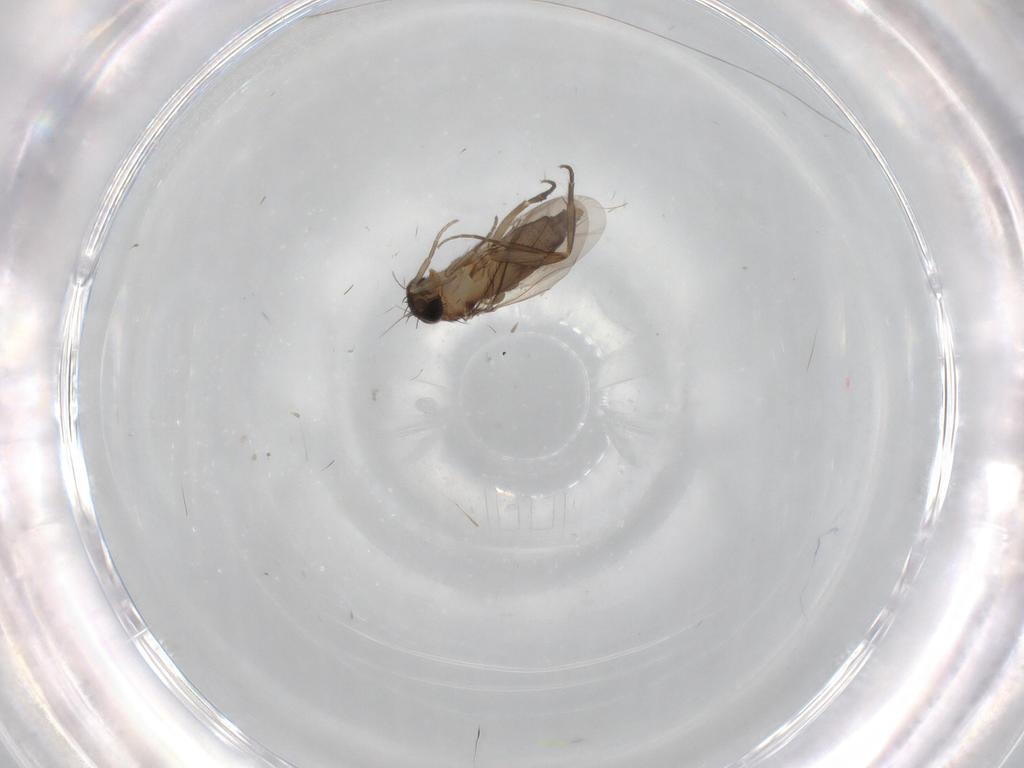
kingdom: Animalia
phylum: Arthropoda
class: Insecta
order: Diptera
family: Phoridae
